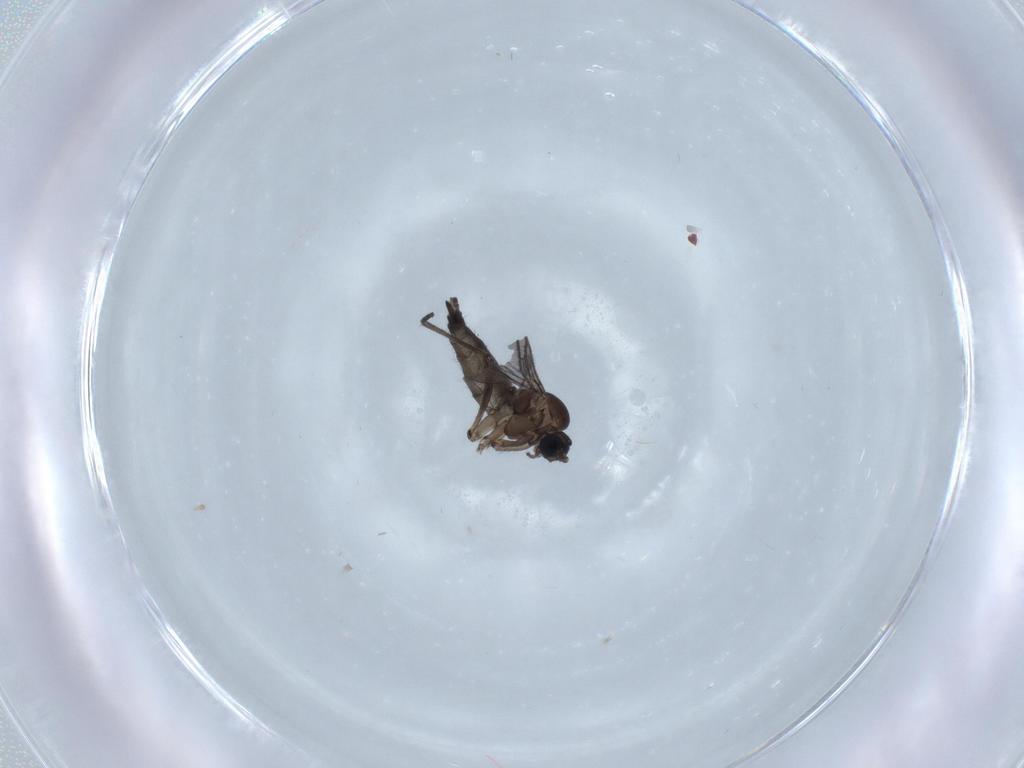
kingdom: Animalia
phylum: Arthropoda
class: Insecta
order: Diptera
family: Sciaridae
